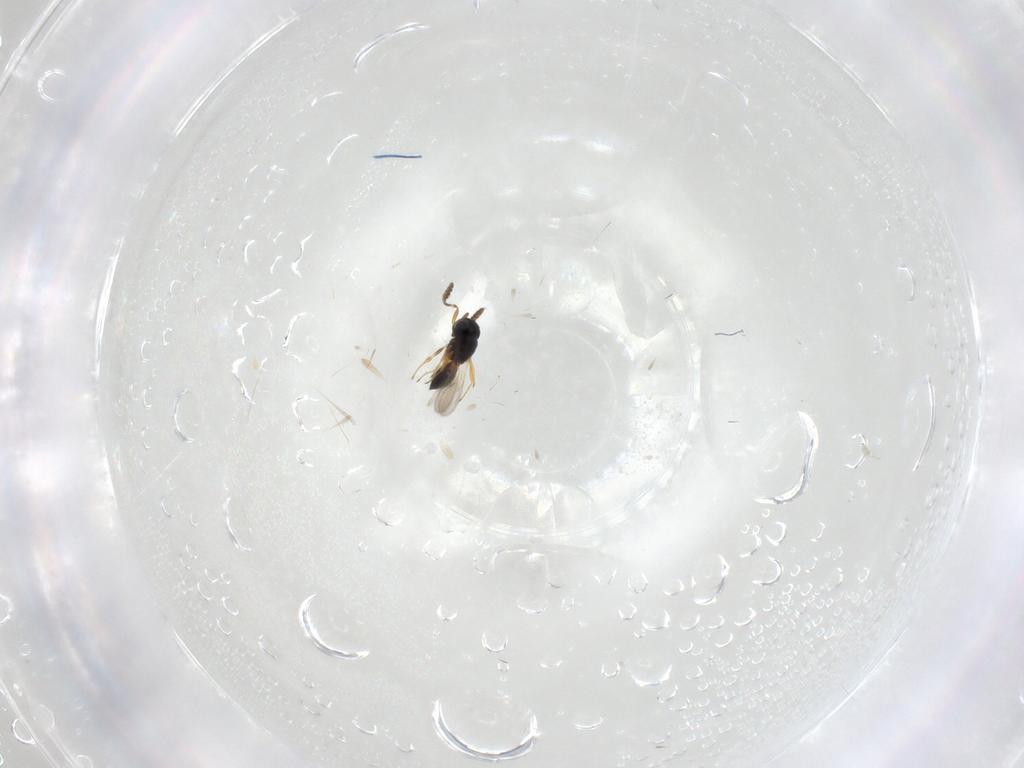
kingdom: Animalia
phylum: Arthropoda
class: Insecta
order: Hymenoptera
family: Scelionidae
